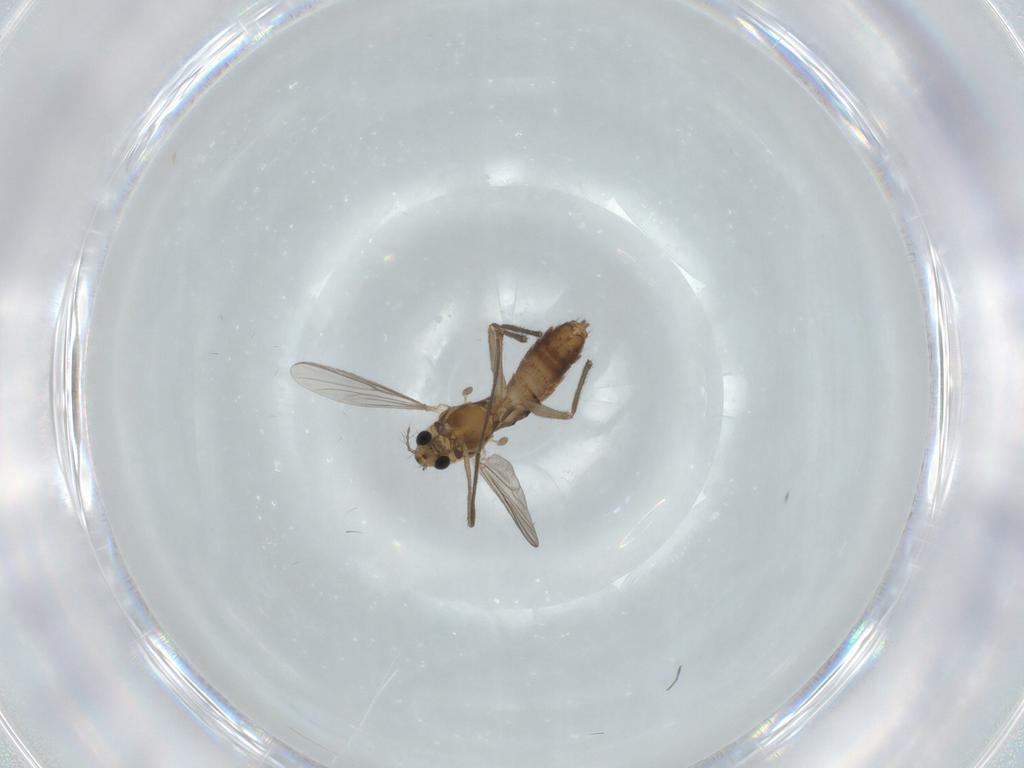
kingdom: Animalia
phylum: Arthropoda
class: Insecta
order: Diptera
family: Chironomidae
